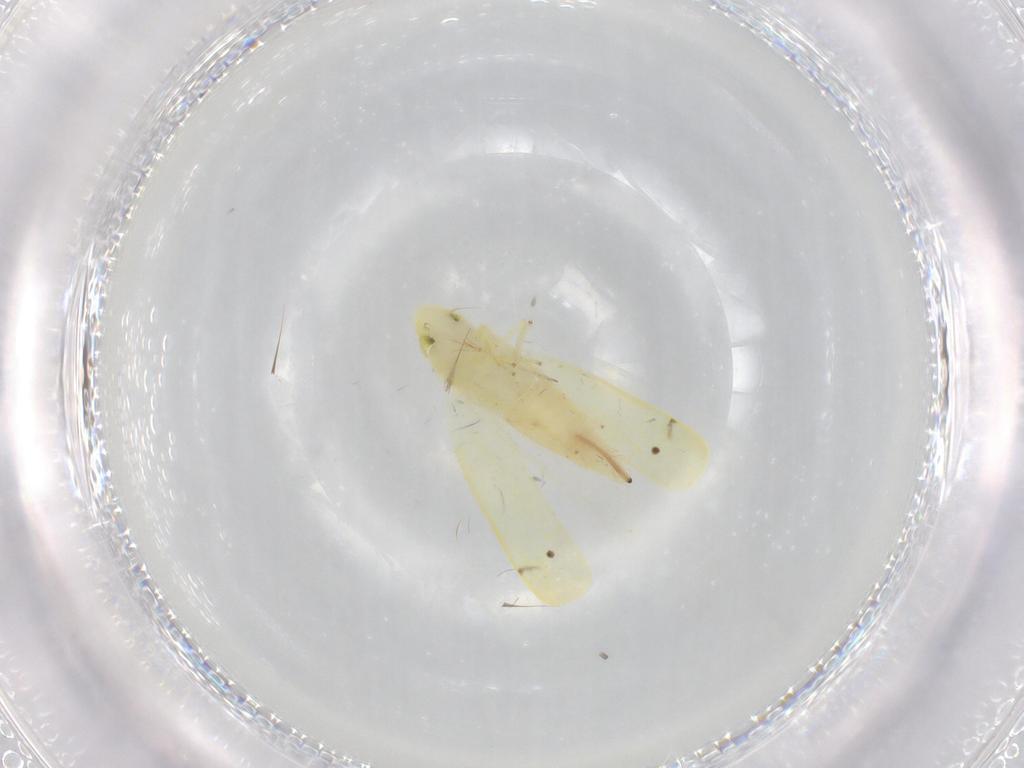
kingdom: Animalia
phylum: Arthropoda
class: Insecta
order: Hemiptera
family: Cicadellidae
